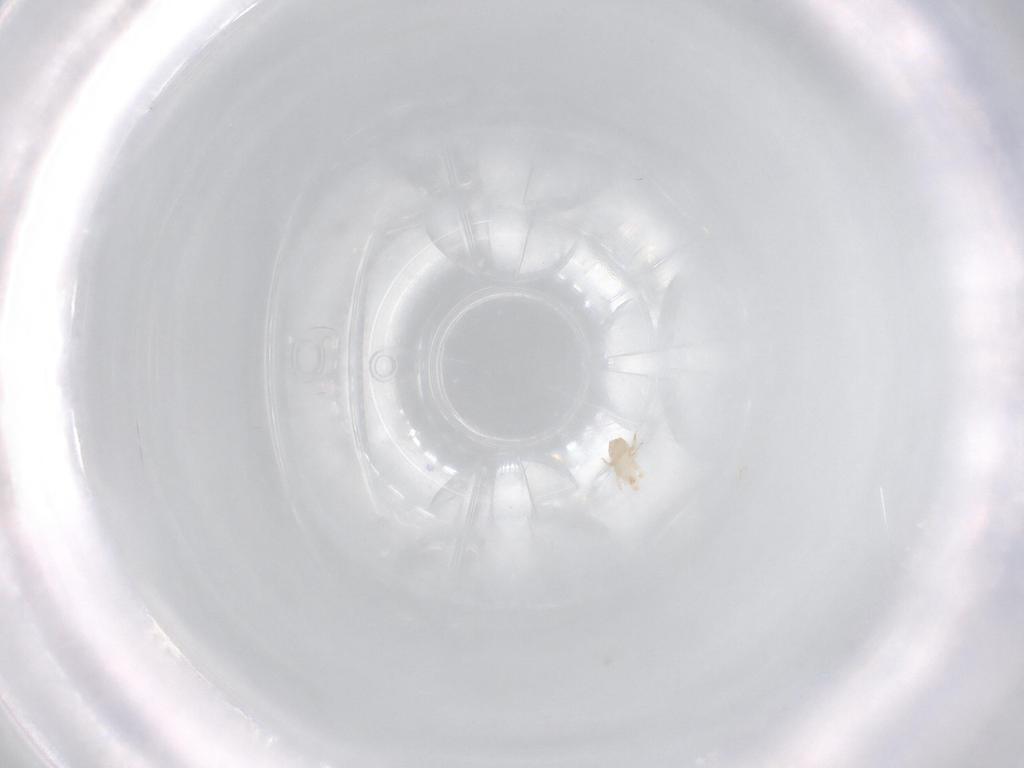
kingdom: Animalia
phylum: Arthropoda
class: Arachnida
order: Mesostigmata
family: Digamasellidae
